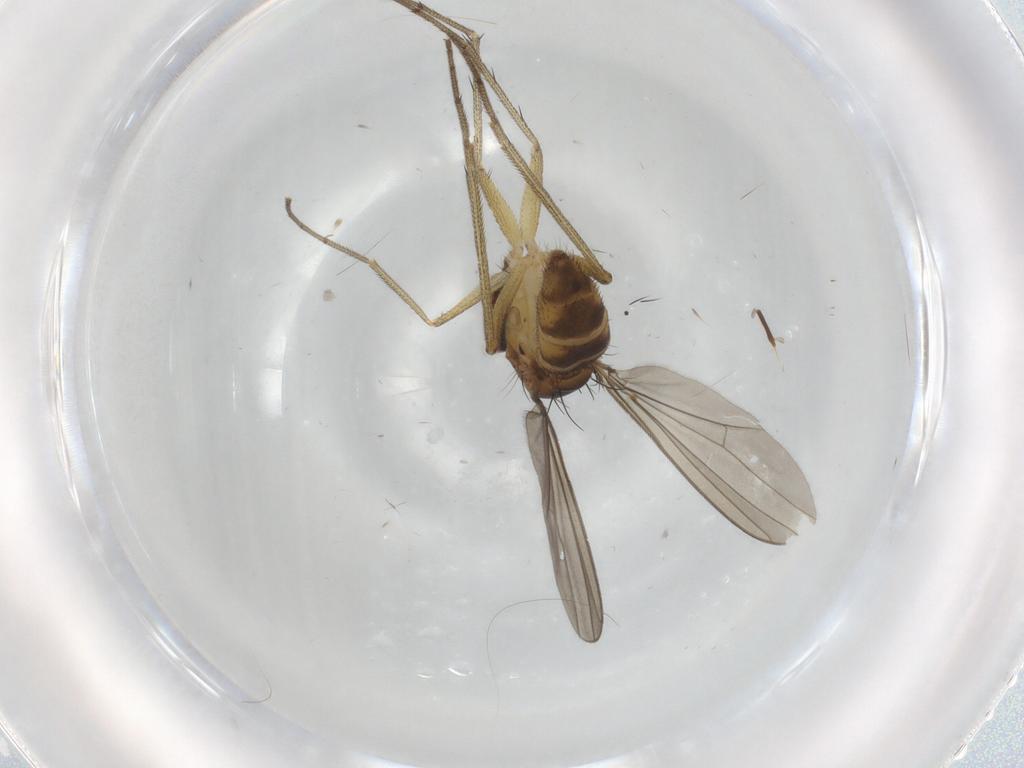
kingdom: Animalia
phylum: Arthropoda
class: Insecta
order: Diptera
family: Dolichopodidae
